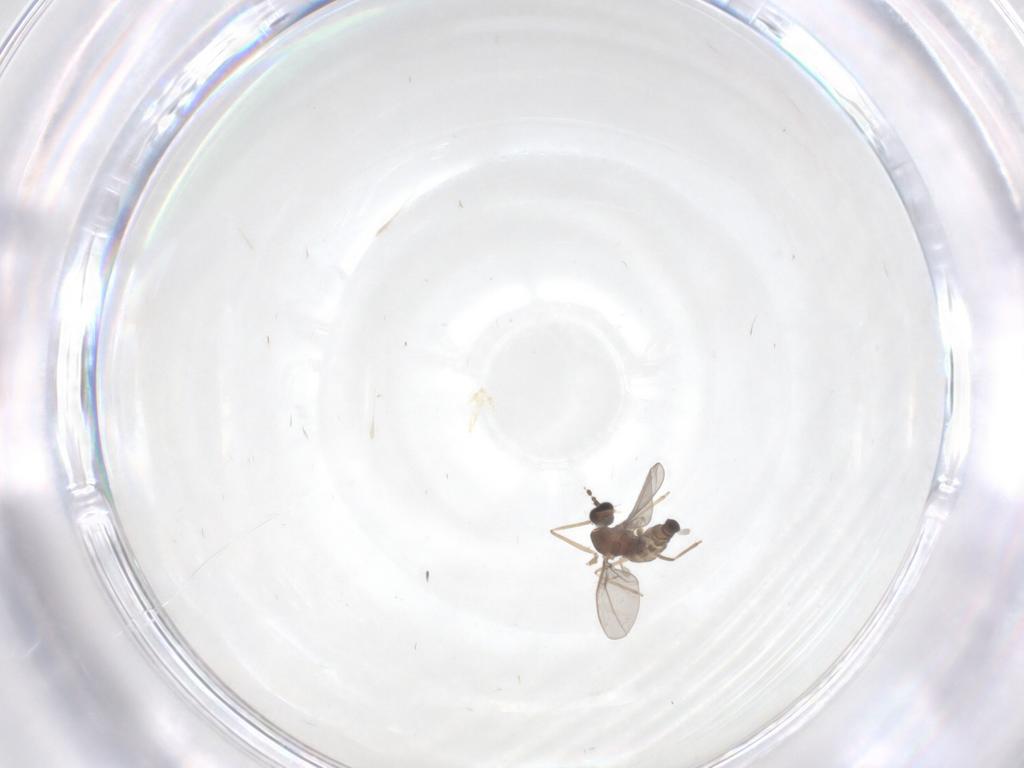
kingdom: Animalia
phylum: Arthropoda
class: Insecta
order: Diptera
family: Cecidomyiidae
